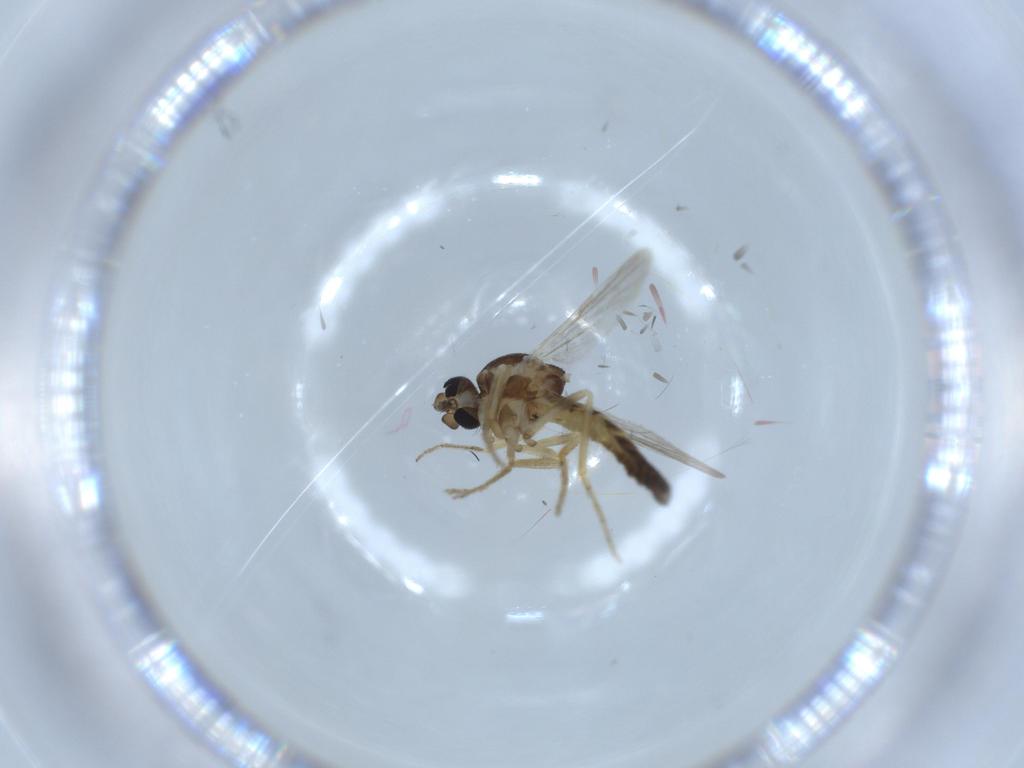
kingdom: Animalia
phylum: Arthropoda
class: Insecta
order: Diptera
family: Ceratopogonidae
